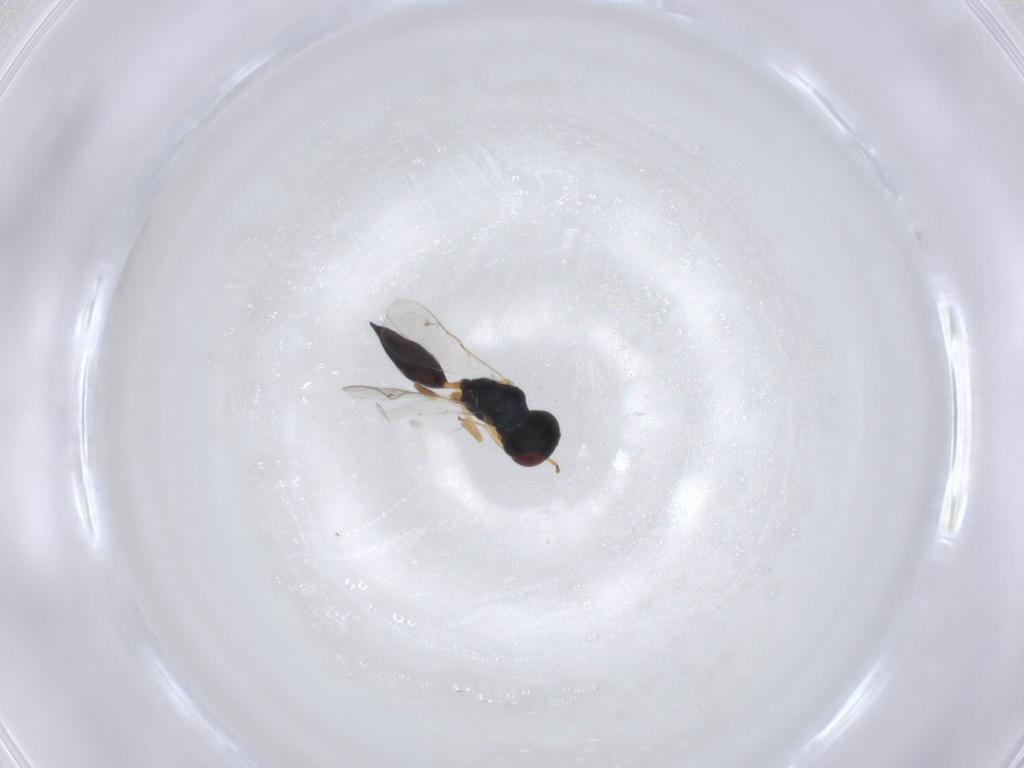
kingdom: Animalia
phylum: Arthropoda
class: Insecta
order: Hymenoptera
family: Pteromalidae
